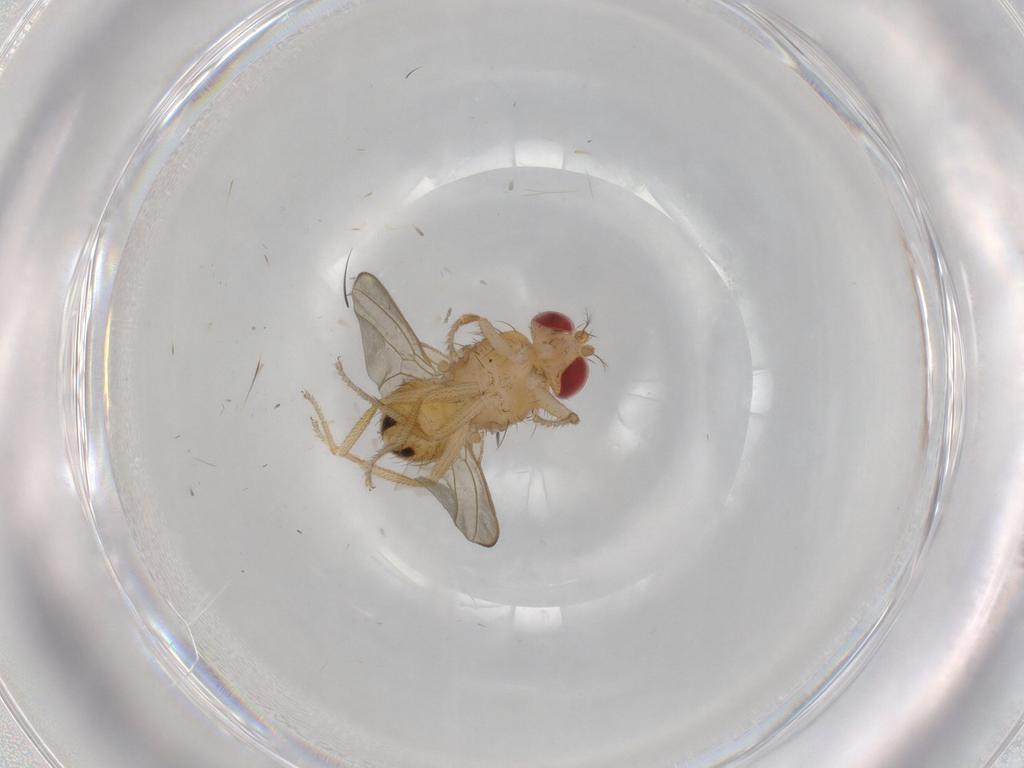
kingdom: Animalia
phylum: Arthropoda
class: Insecta
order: Diptera
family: Drosophilidae
